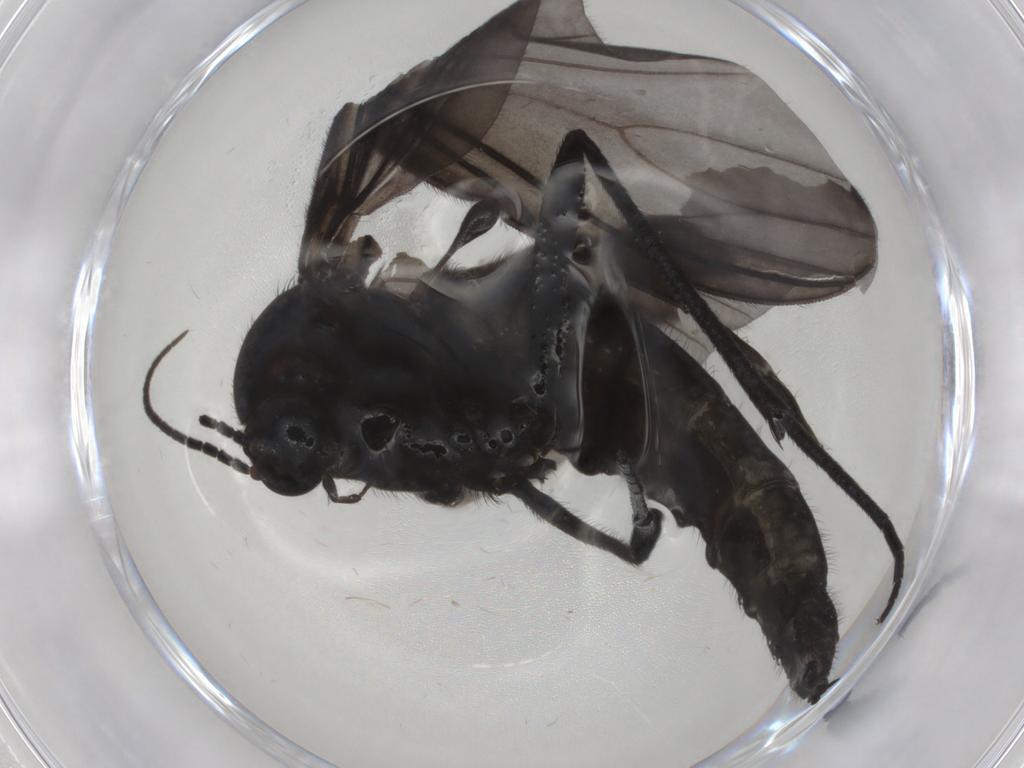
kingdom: Animalia
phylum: Arthropoda
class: Insecta
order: Diptera
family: Sciaridae
